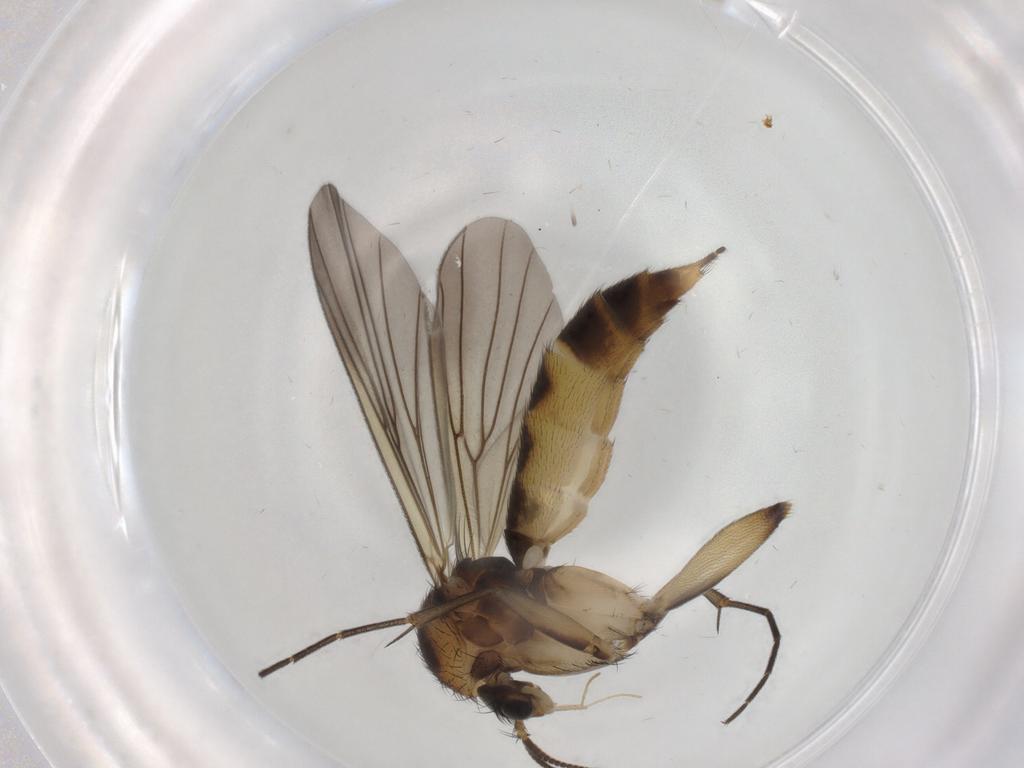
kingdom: Animalia
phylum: Arthropoda
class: Insecta
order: Diptera
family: Mycetophilidae
